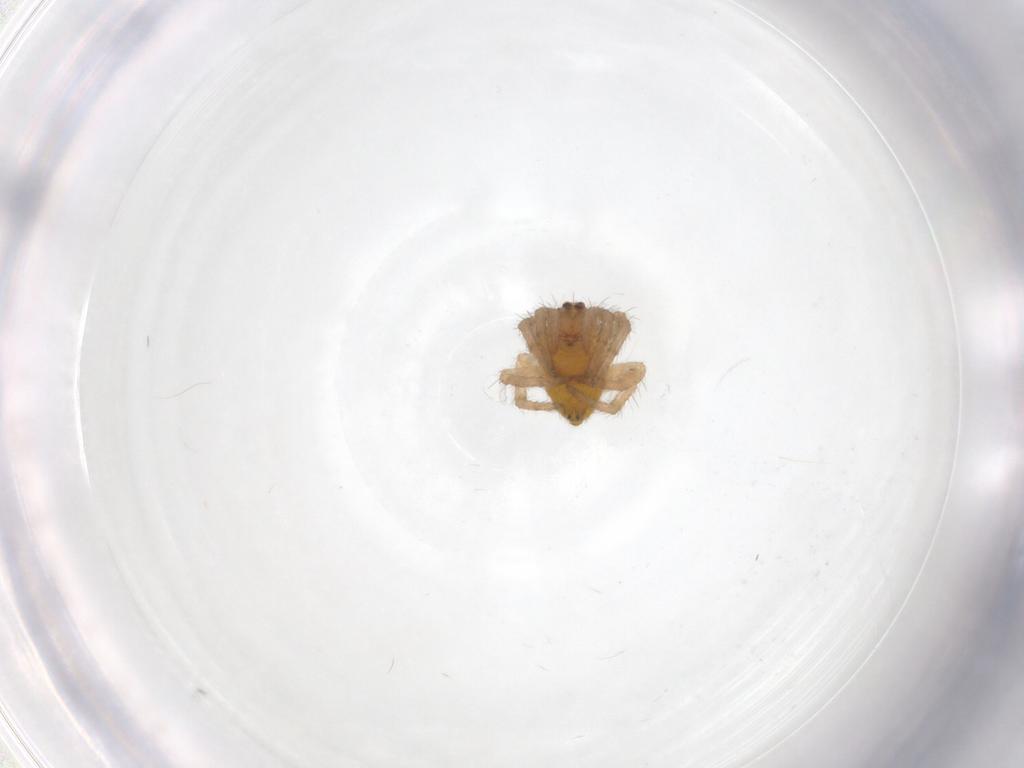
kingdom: Animalia
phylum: Arthropoda
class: Arachnida
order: Araneae
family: Araneidae
